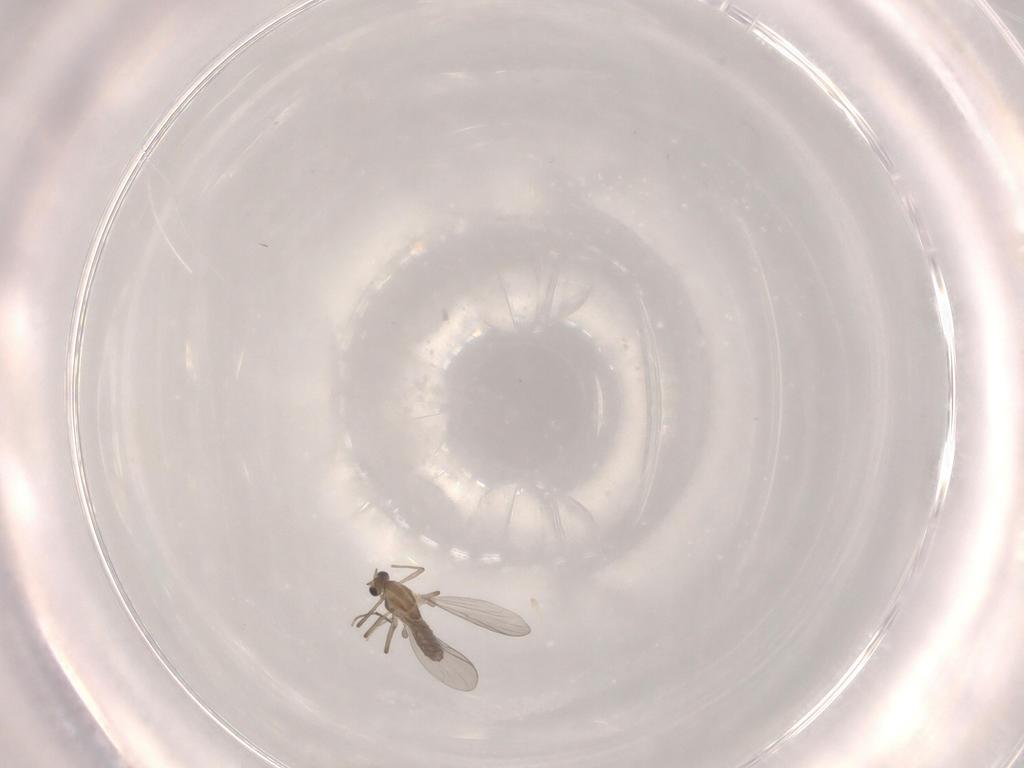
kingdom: Animalia
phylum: Arthropoda
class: Insecta
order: Diptera
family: Chironomidae
